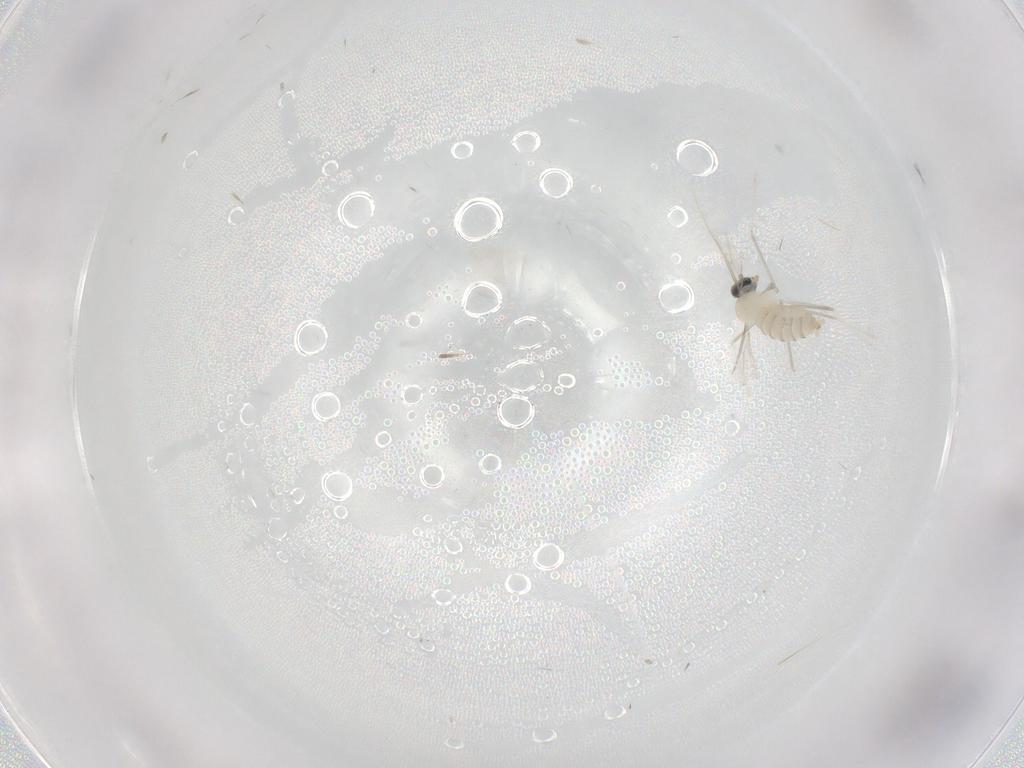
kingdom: Animalia
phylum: Arthropoda
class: Insecta
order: Diptera
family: Cecidomyiidae
